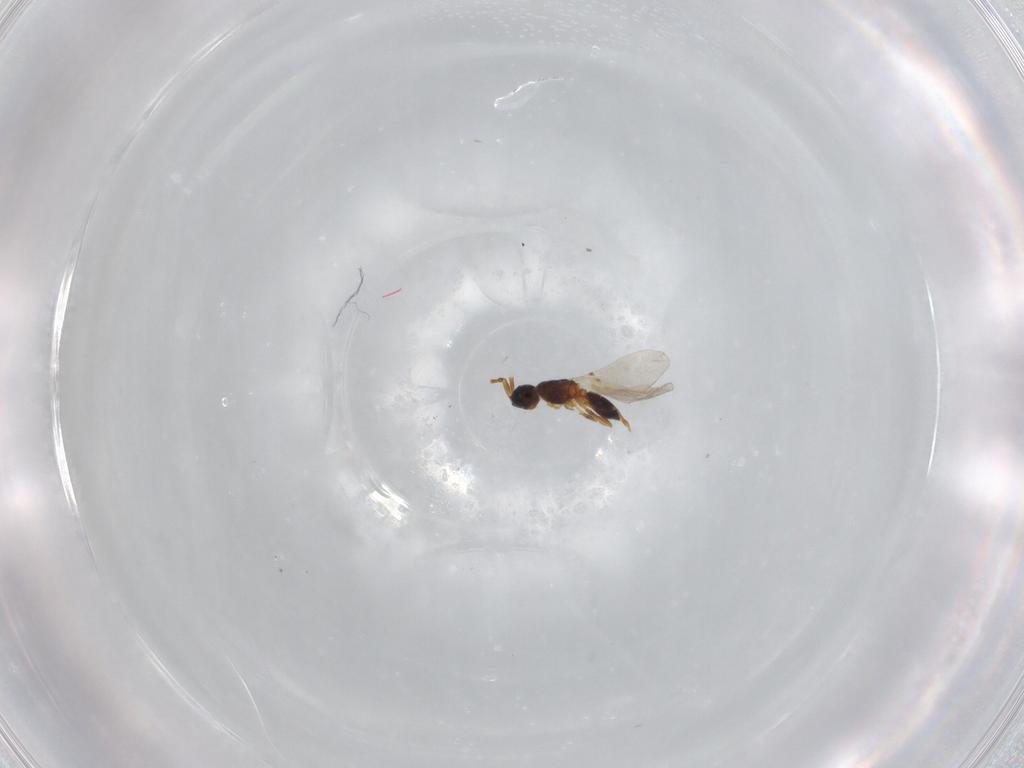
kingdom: Animalia
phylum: Arthropoda
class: Insecta
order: Hymenoptera
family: Diapriidae
